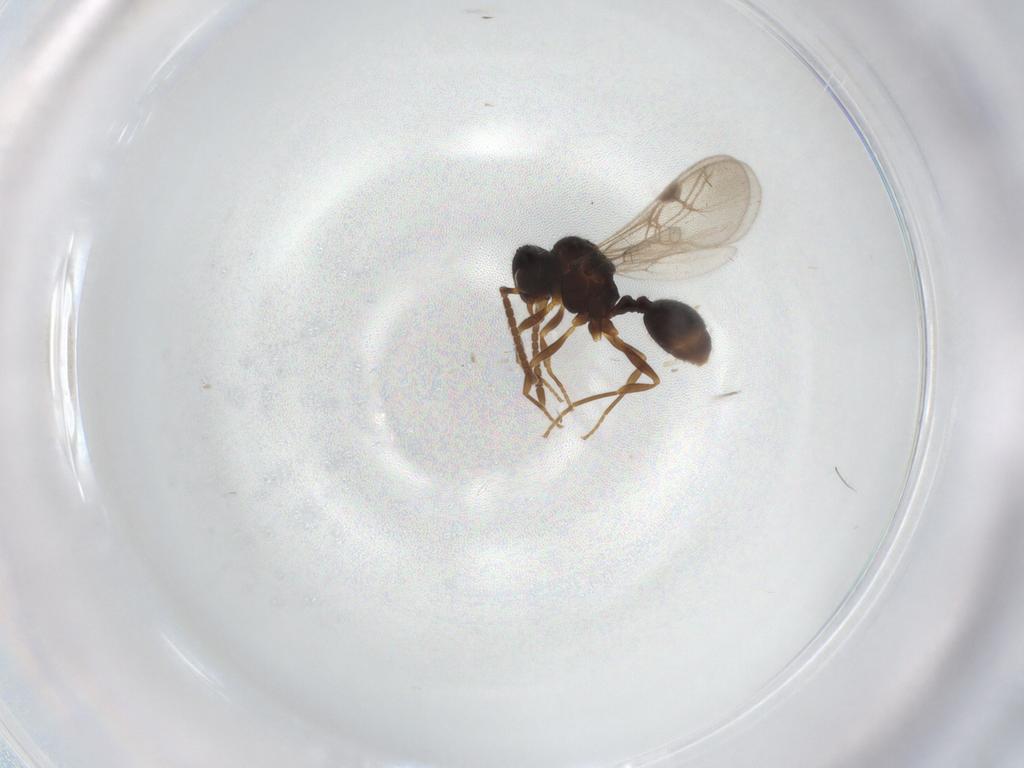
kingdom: Animalia
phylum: Arthropoda
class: Insecta
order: Hymenoptera
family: Formicidae
